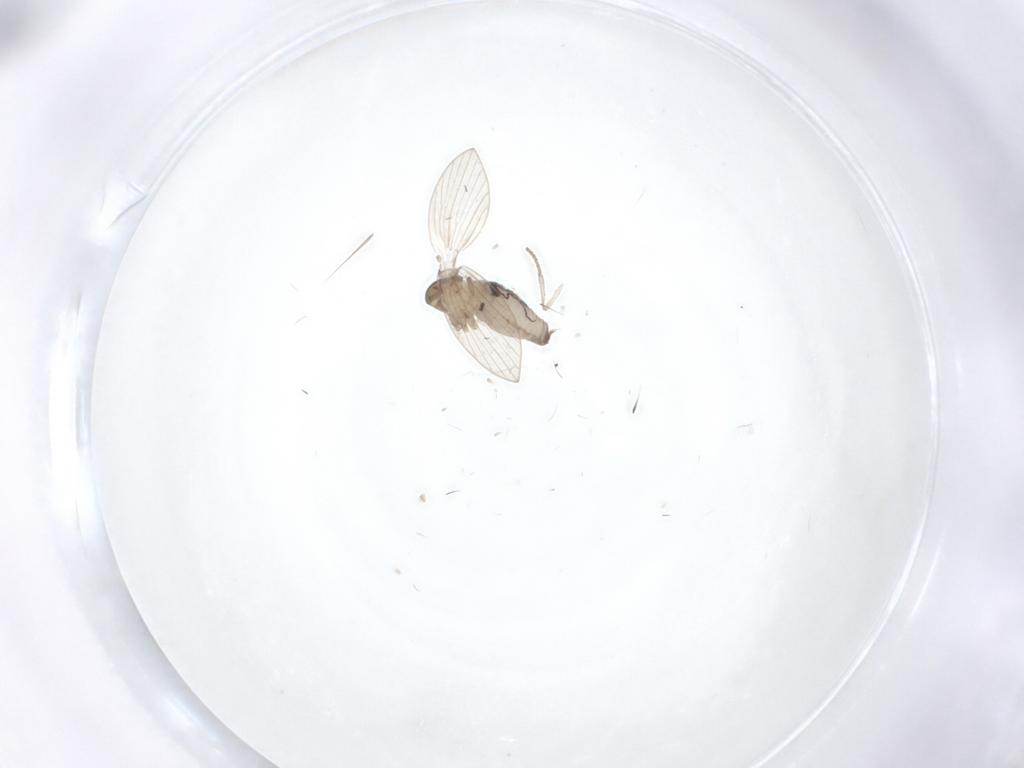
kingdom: Animalia
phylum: Arthropoda
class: Insecta
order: Diptera
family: Psychodidae
